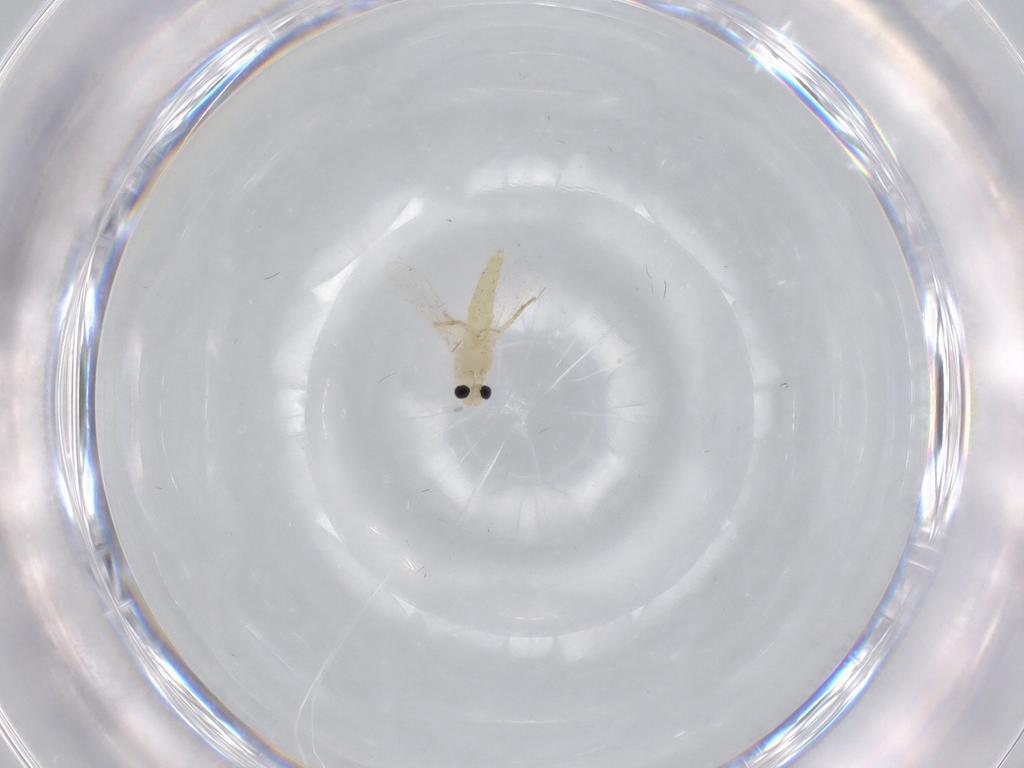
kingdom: Animalia
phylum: Arthropoda
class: Insecta
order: Diptera
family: Chironomidae
